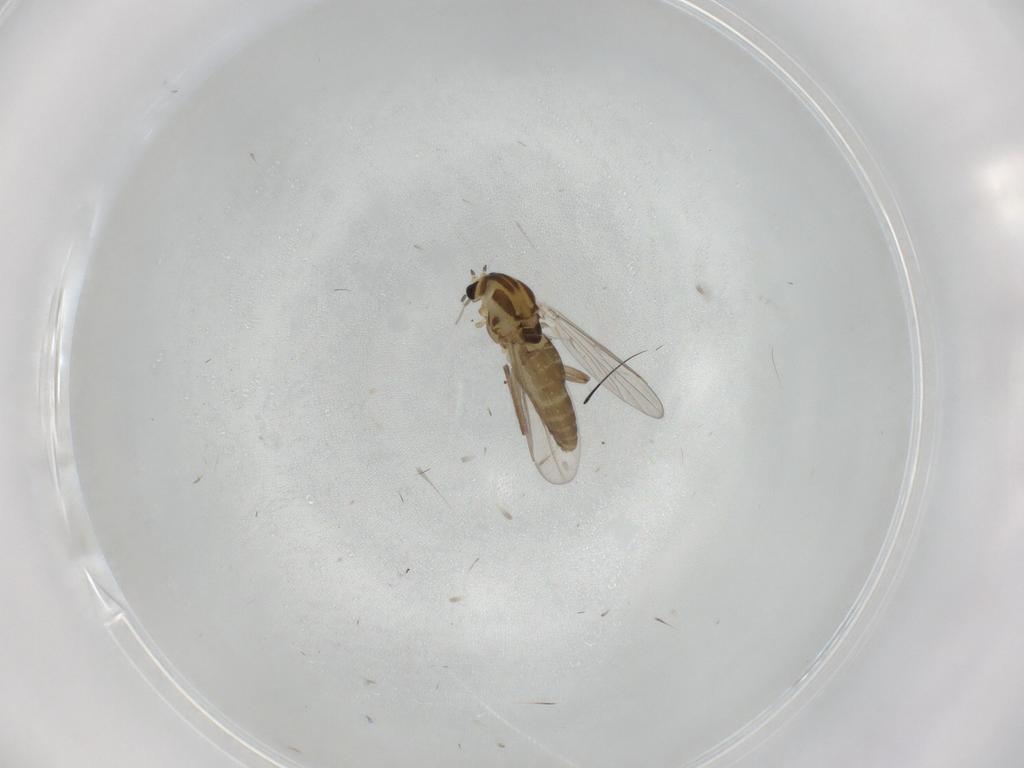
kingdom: Animalia
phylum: Arthropoda
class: Insecta
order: Diptera
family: Chironomidae
